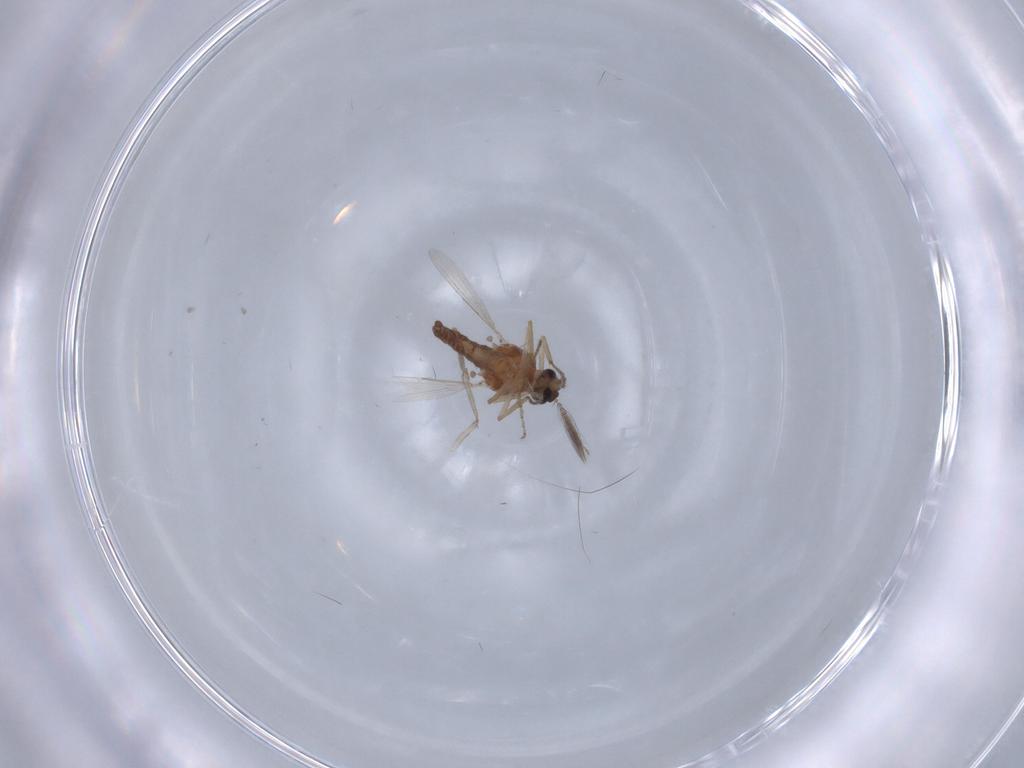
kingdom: Animalia
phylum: Arthropoda
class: Insecta
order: Diptera
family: Ceratopogonidae
